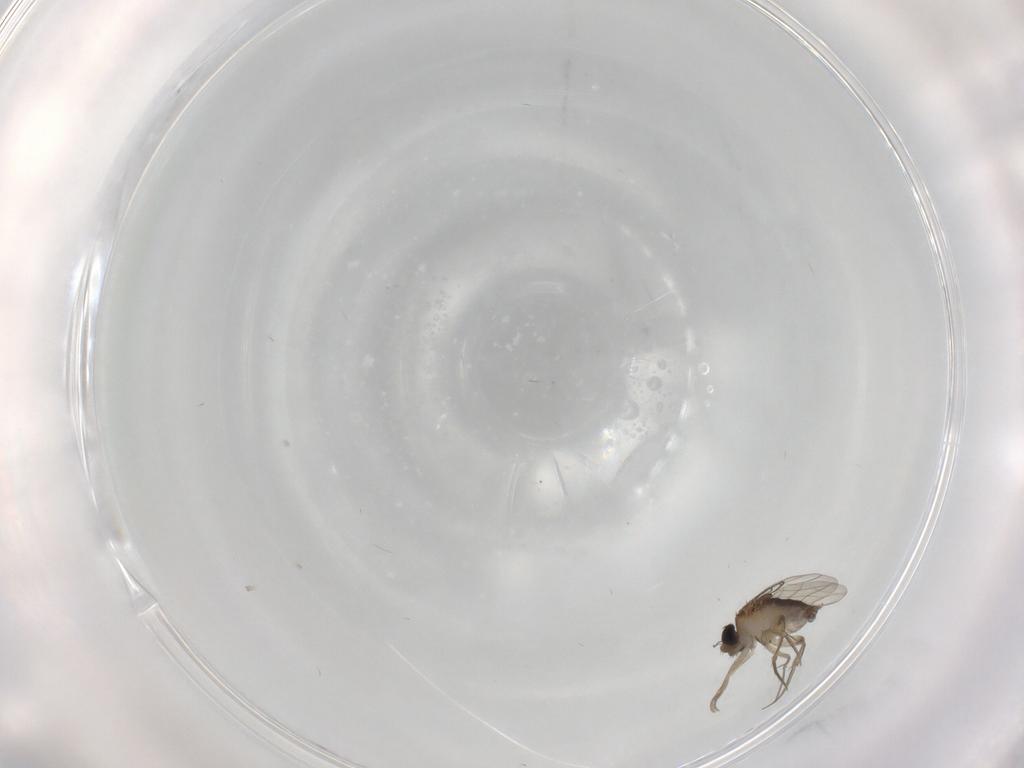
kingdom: Animalia
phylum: Arthropoda
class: Insecta
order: Diptera
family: Phoridae
